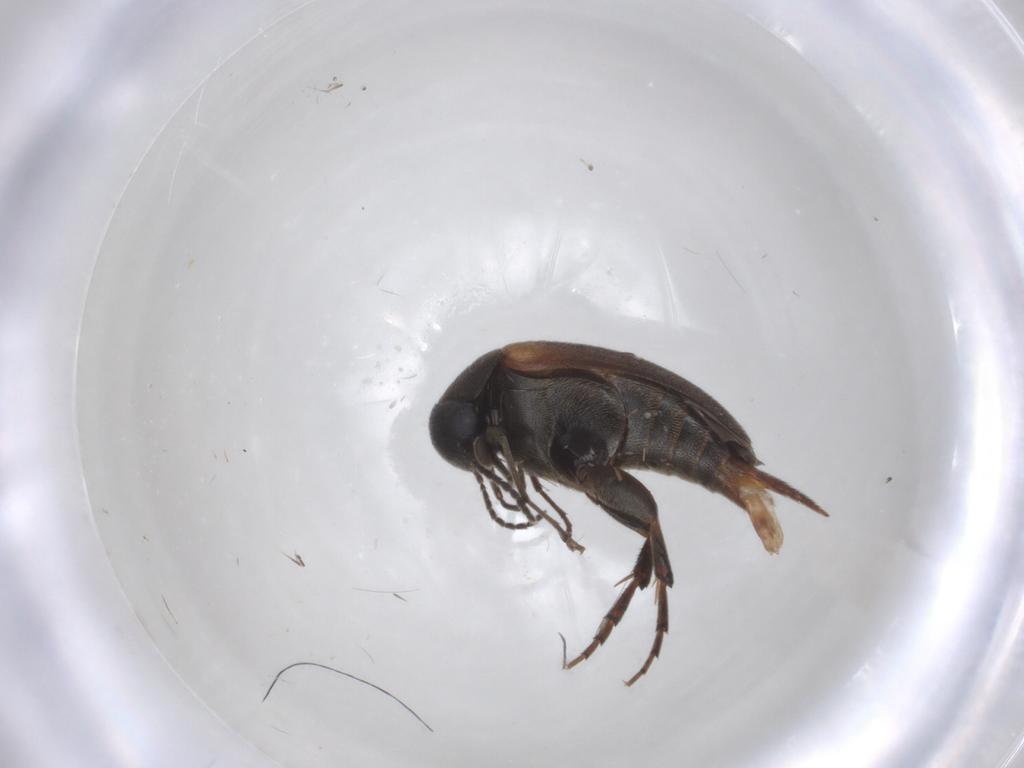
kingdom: Animalia
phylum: Arthropoda
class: Insecta
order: Coleoptera
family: Mordellidae
